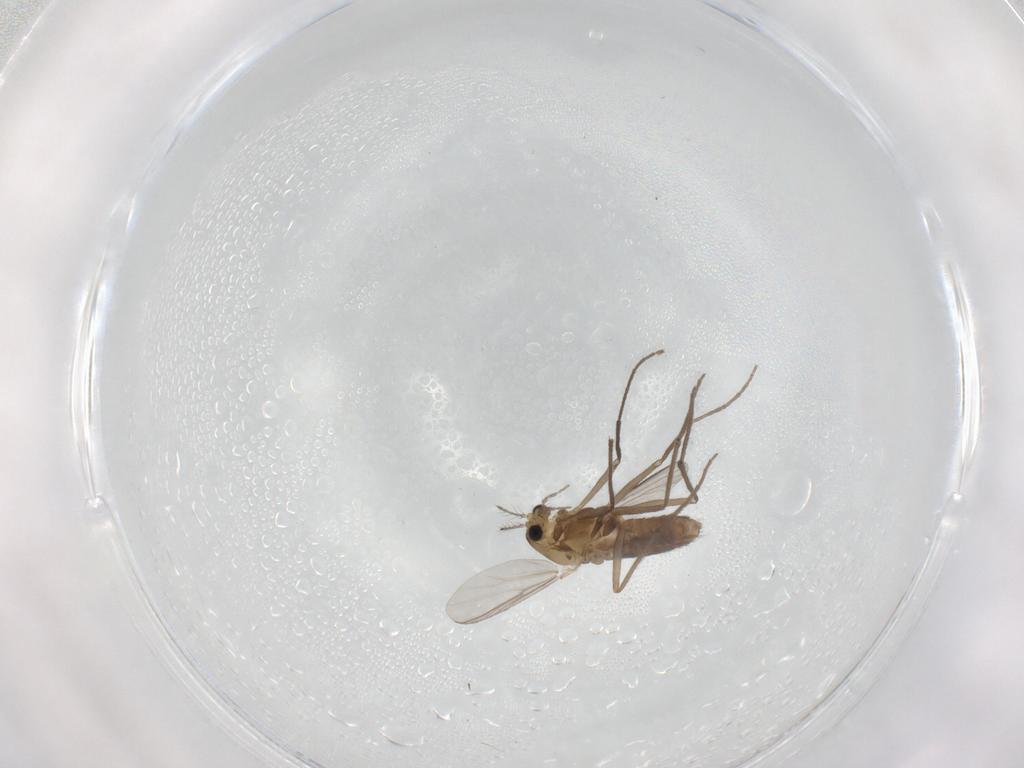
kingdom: Animalia
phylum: Arthropoda
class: Insecta
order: Diptera
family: Chironomidae
